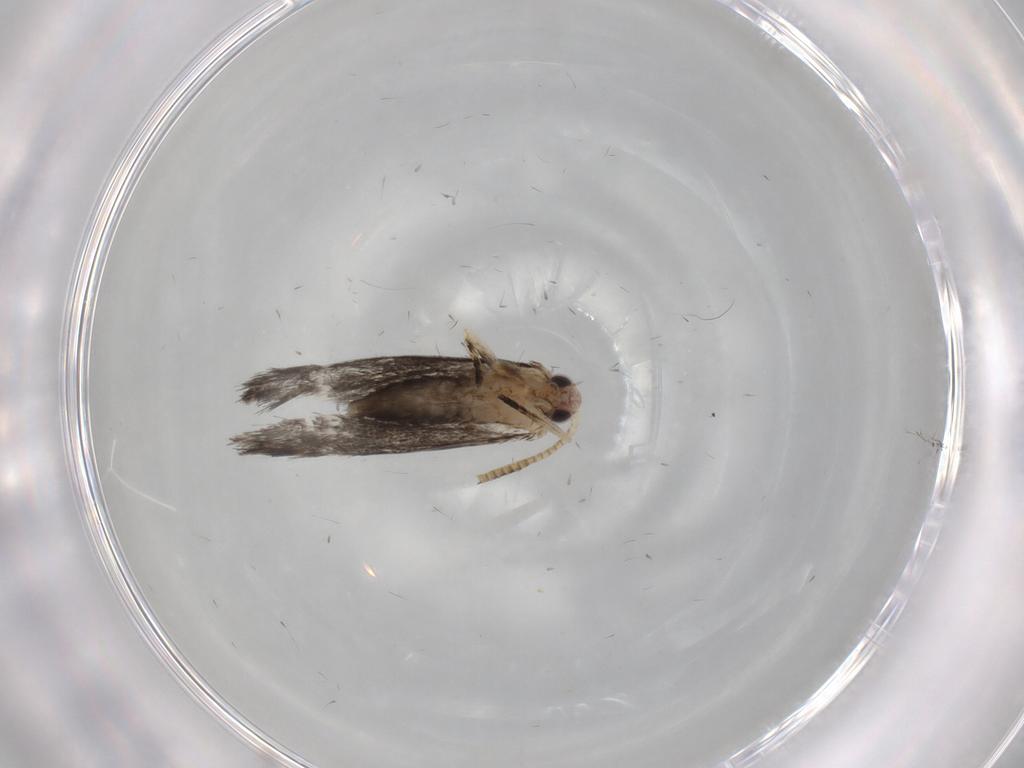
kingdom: Animalia
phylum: Arthropoda
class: Insecta
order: Lepidoptera
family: Tineidae
